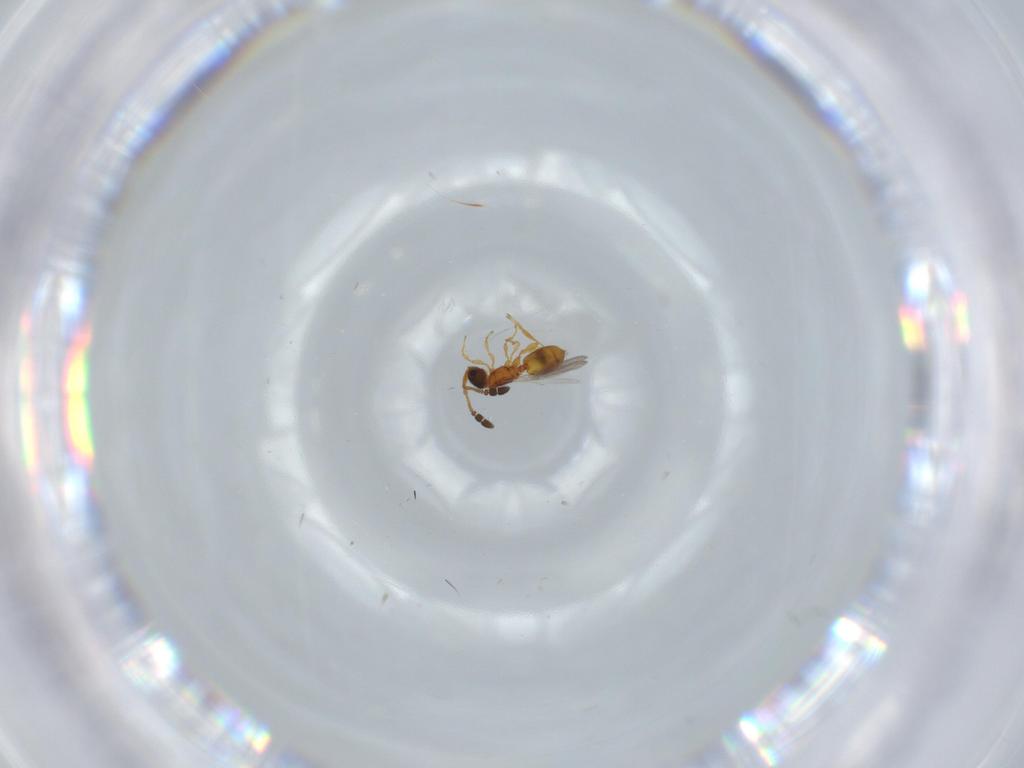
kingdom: Animalia
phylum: Arthropoda
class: Insecta
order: Hymenoptera
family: Diapriidae
